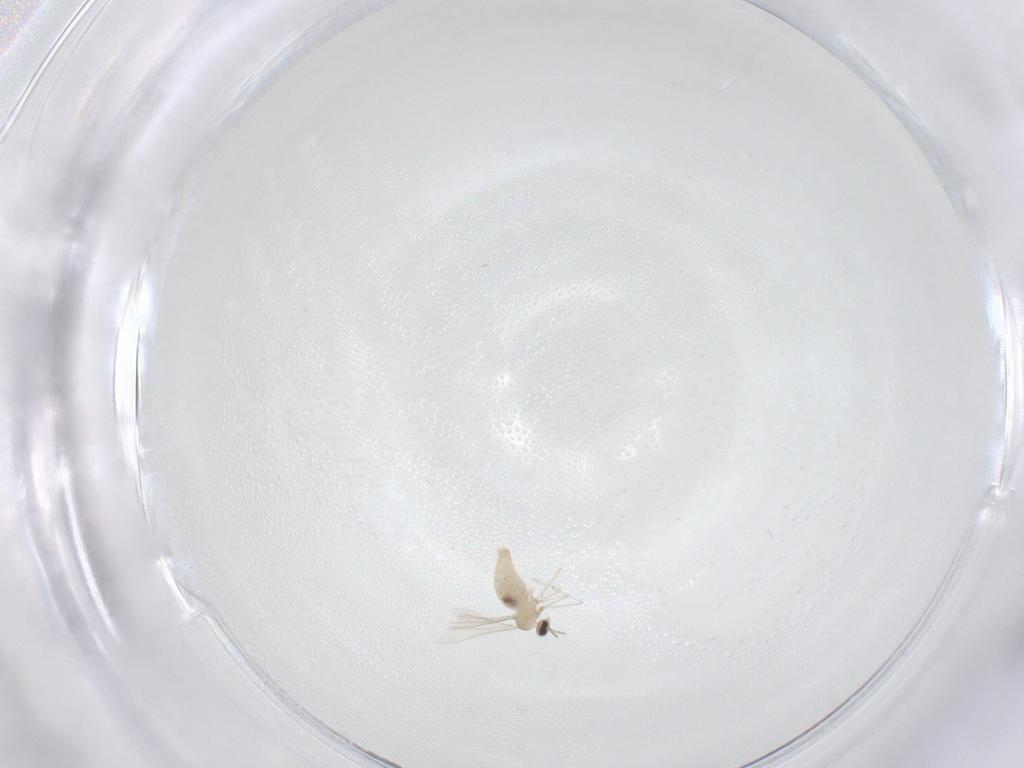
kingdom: Animalia
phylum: Arthropoda
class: Insecta
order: Diptera
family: Cecidomyiidae
